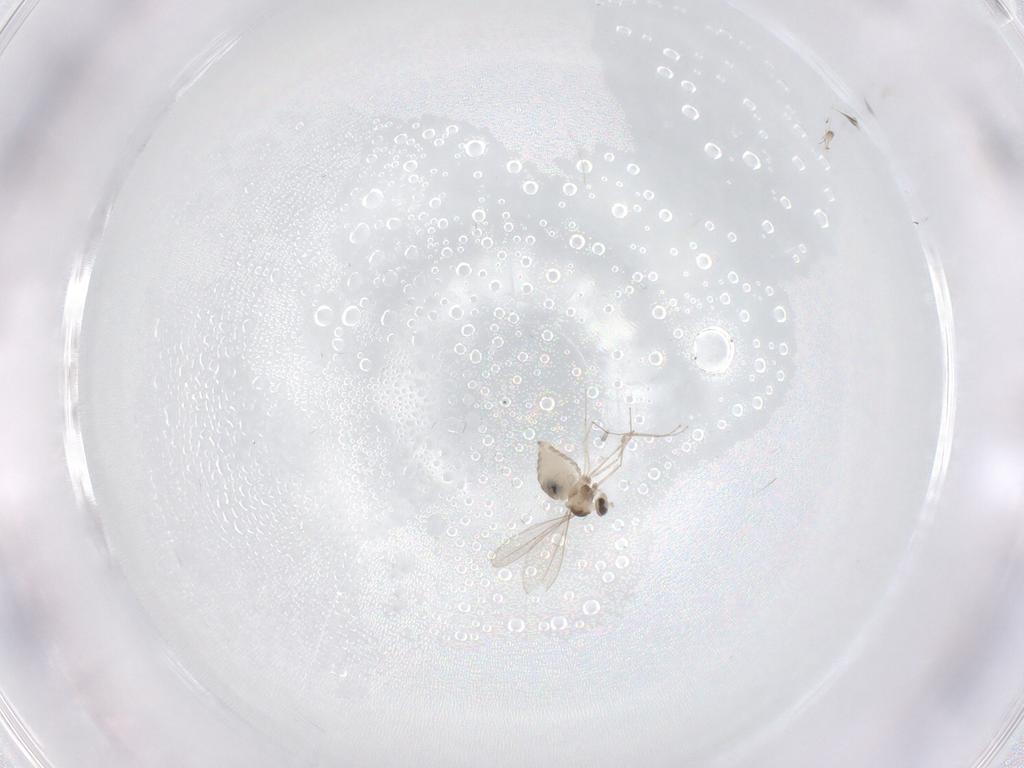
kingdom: Animalia
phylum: Arthropoda
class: Insecta
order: Diptera
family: Cecidomyiidae
